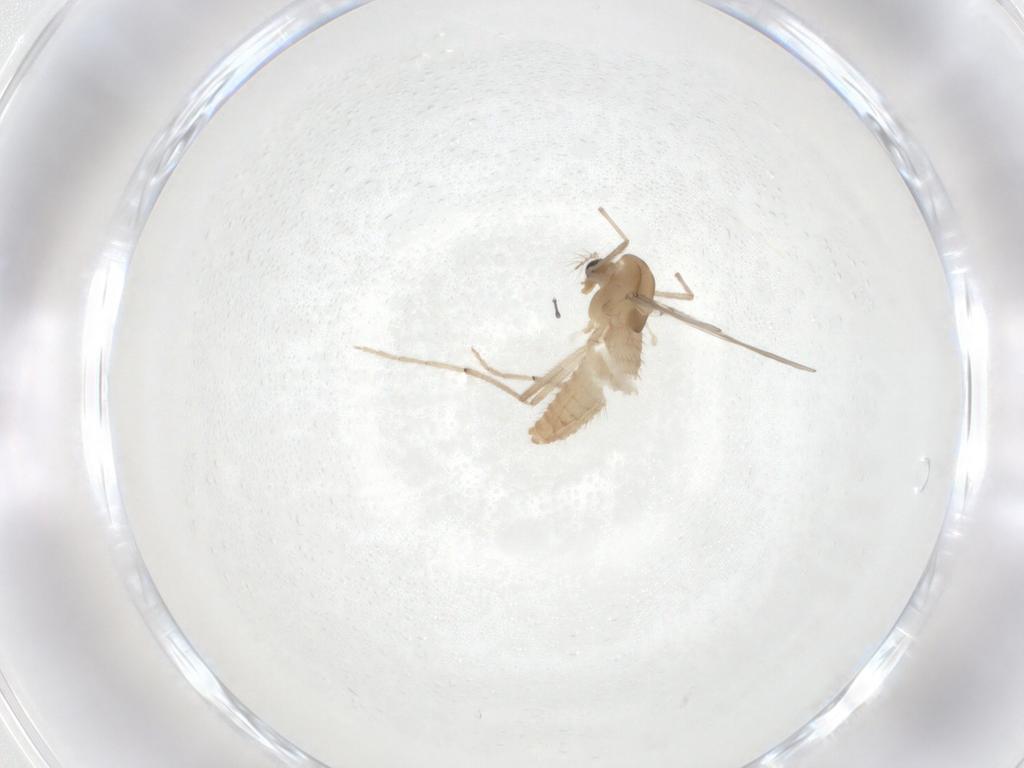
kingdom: Animalia
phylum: Arthropoda
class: Insecta
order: Diptera
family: Chironomidae
